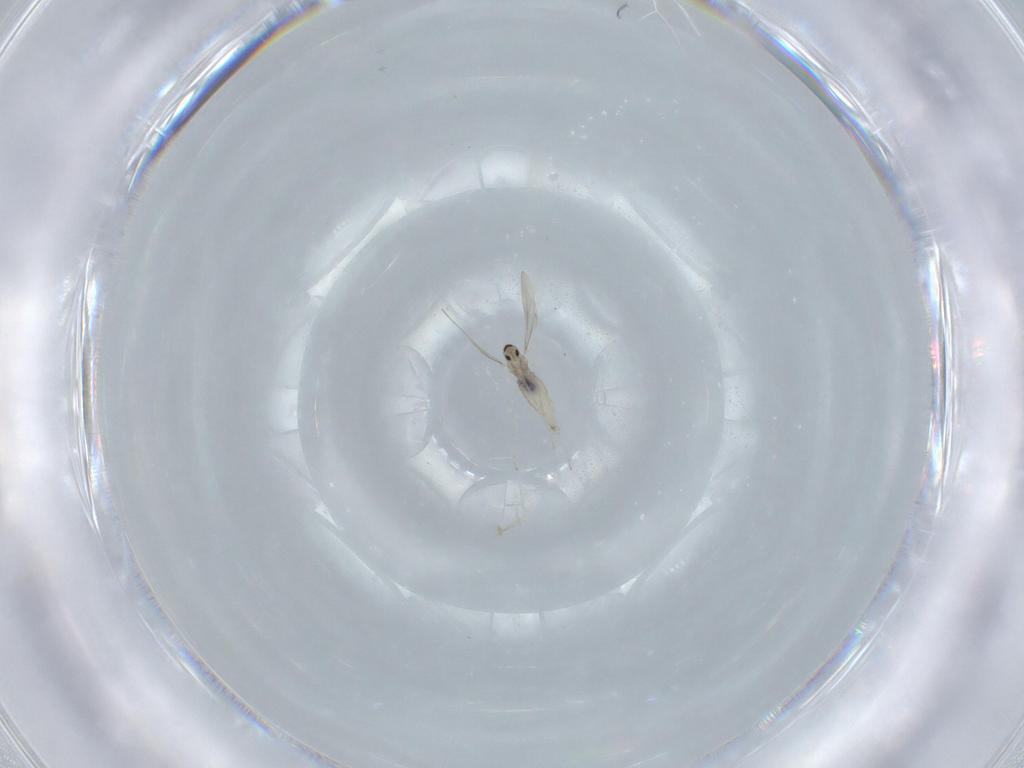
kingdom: Animalia
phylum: Arthropoda
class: Insecta
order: Diptera
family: Cecidomyiidae
